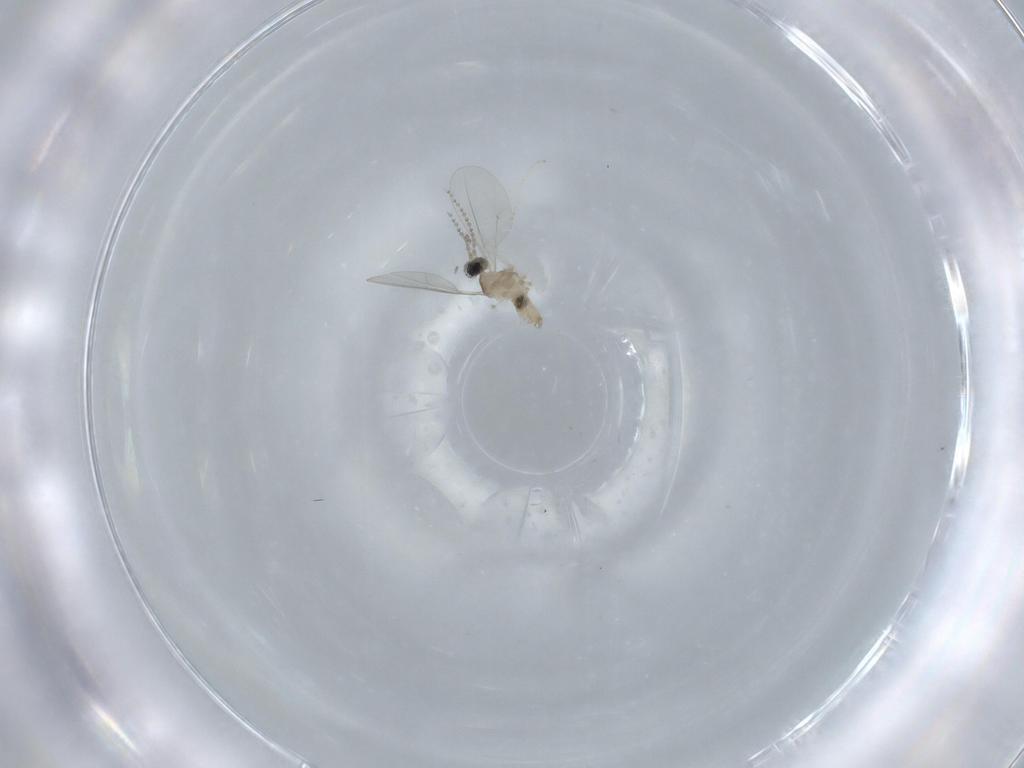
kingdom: Animalia
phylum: Arthropoda
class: Insecta
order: Diptera
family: Cecidomyiidae
